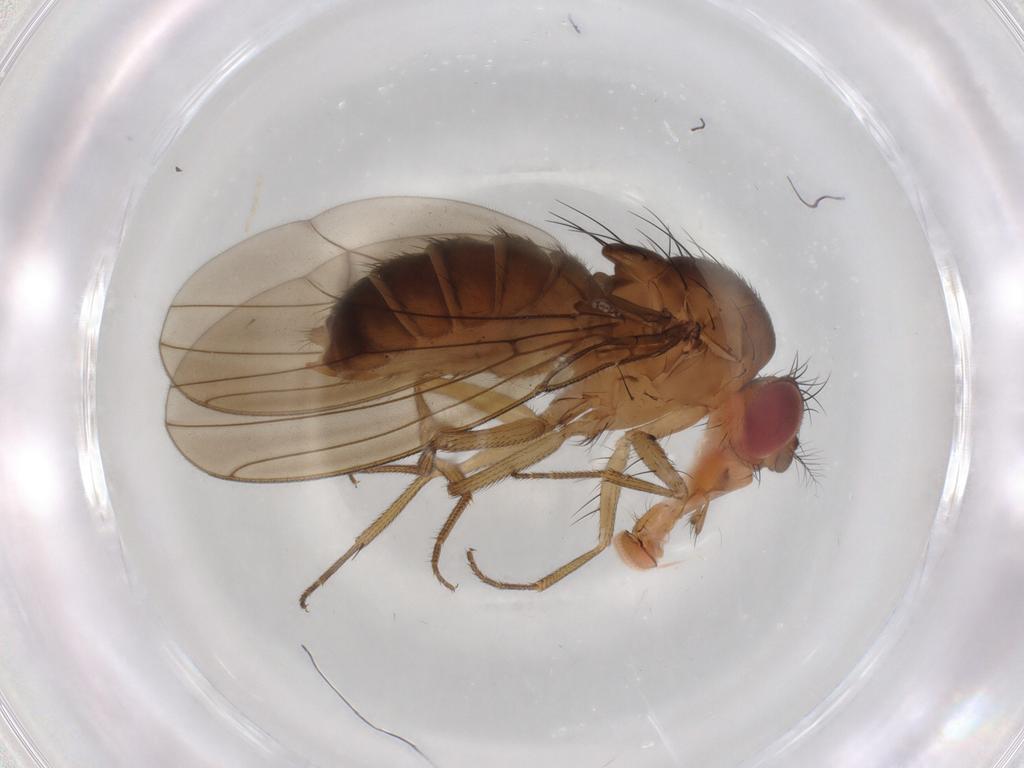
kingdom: Animalia
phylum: Arthropoda
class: Insecta
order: Diptera
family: Drosophilidae
